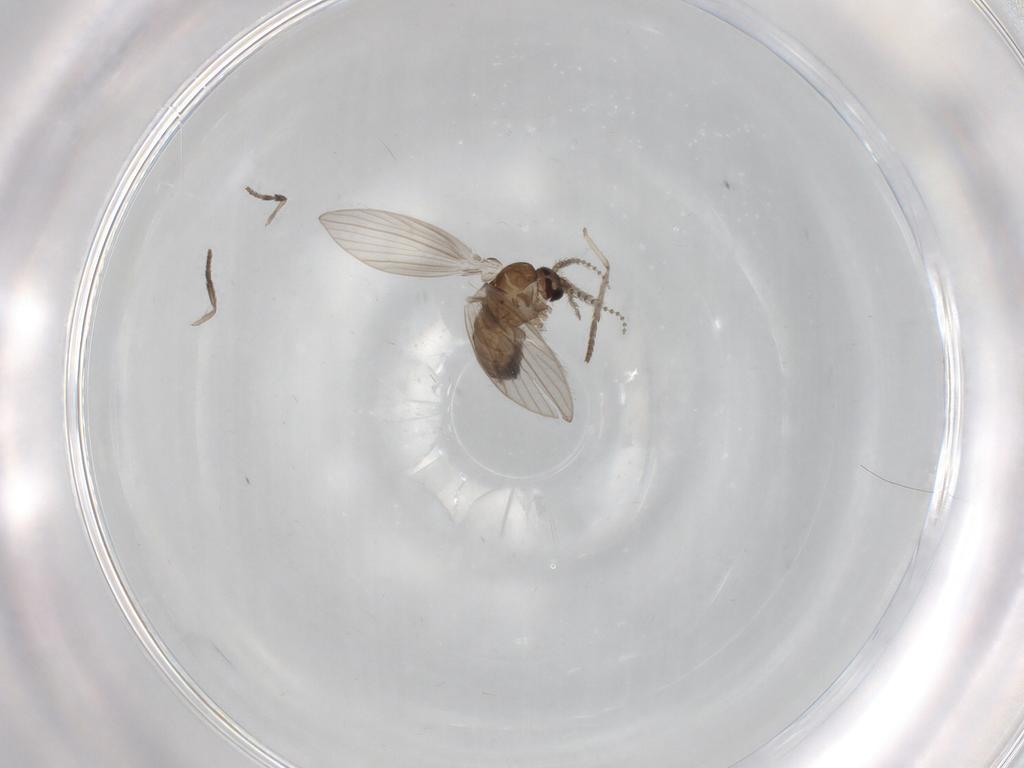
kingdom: Animalia
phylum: Arthropoda
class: Insecta
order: Diptera
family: Psychodidae
